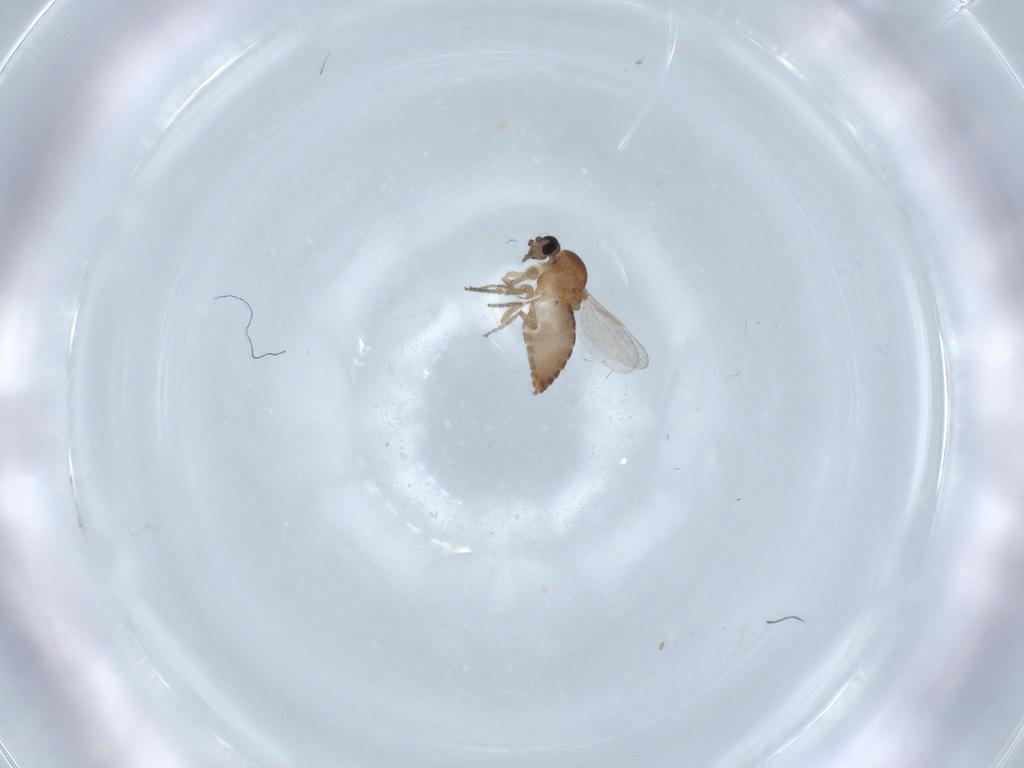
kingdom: Animalia
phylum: Arthropoda
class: Insecta
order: Diptera
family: Ceratopogonidae
